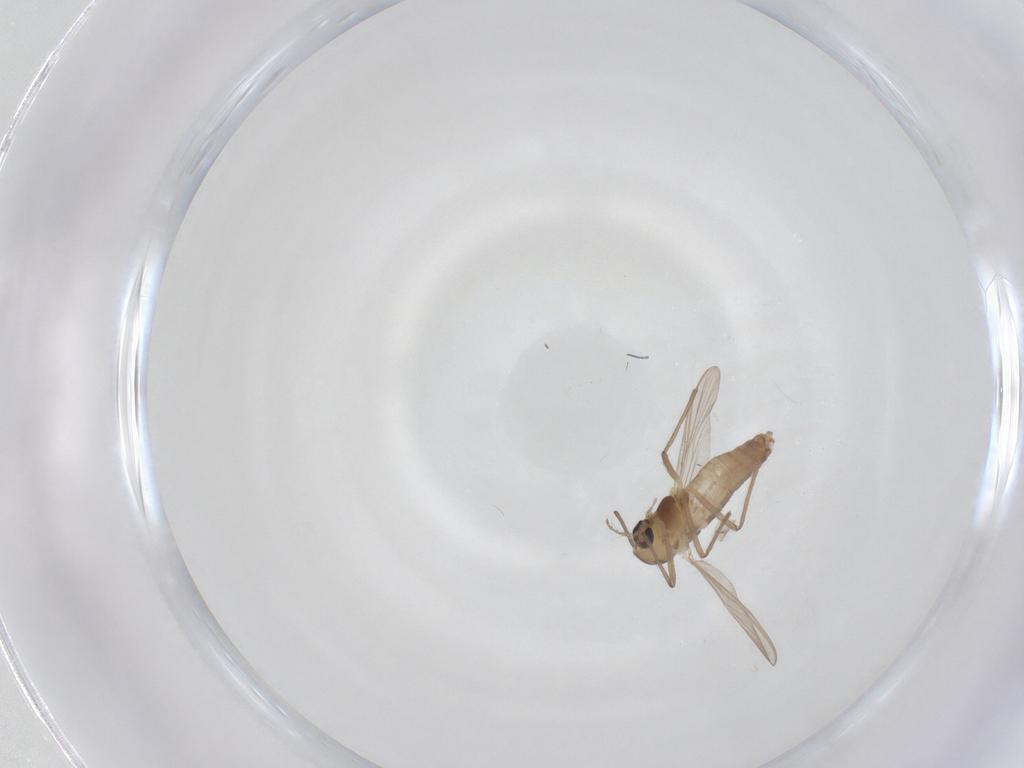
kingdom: Animalia
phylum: Arthropoda
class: Insecta
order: Diptera
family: Chironomidae
